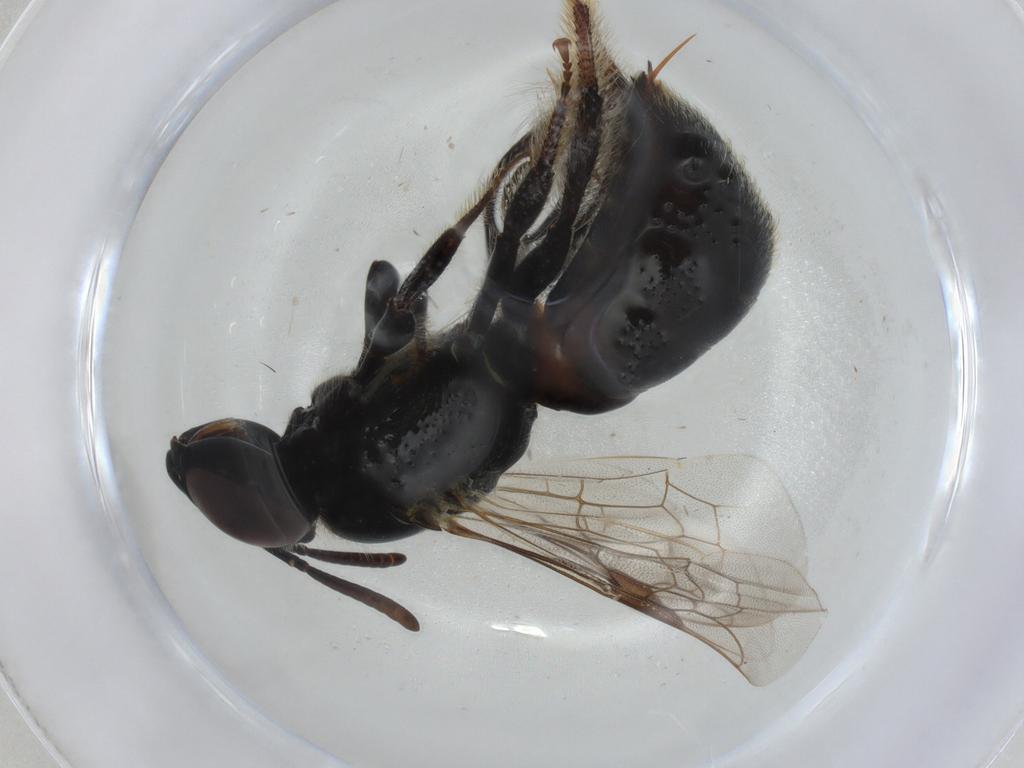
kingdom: Animalia
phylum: Arthropoda
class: Insecta
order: Hymenoptera
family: Apidae
